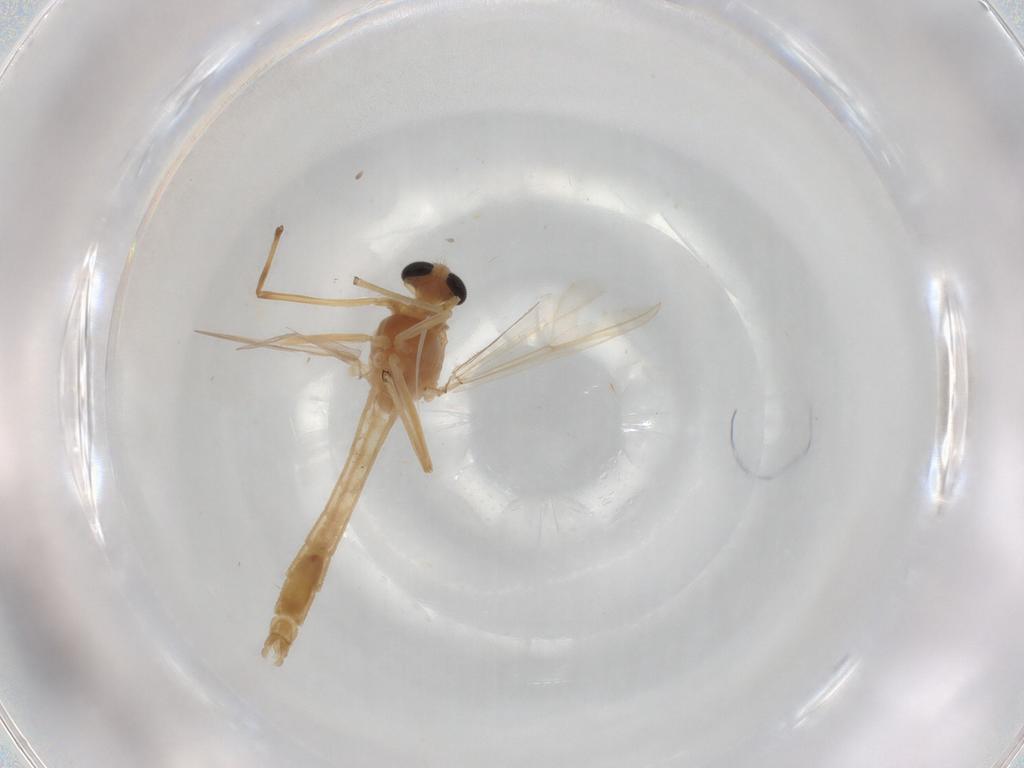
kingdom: Animalia
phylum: Arthropoda
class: Insecta
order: Diptera
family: Chironomidae
